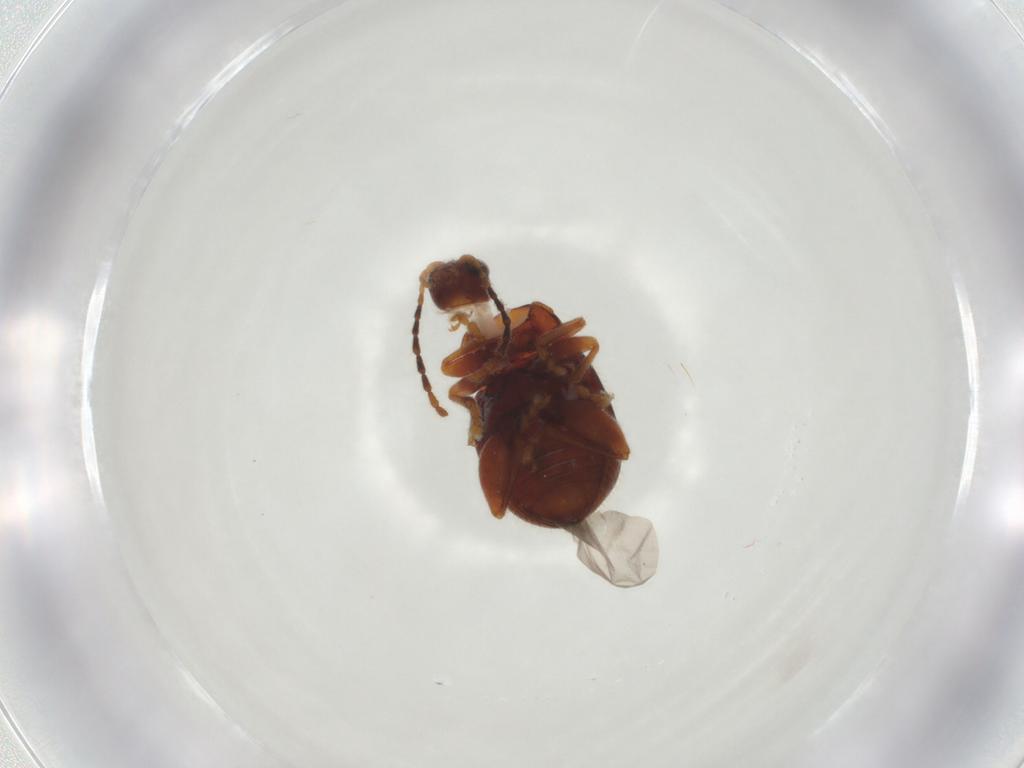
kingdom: Animalia
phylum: Arthropoda
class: Insecta
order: Coleoptera
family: Chrysomelidae
